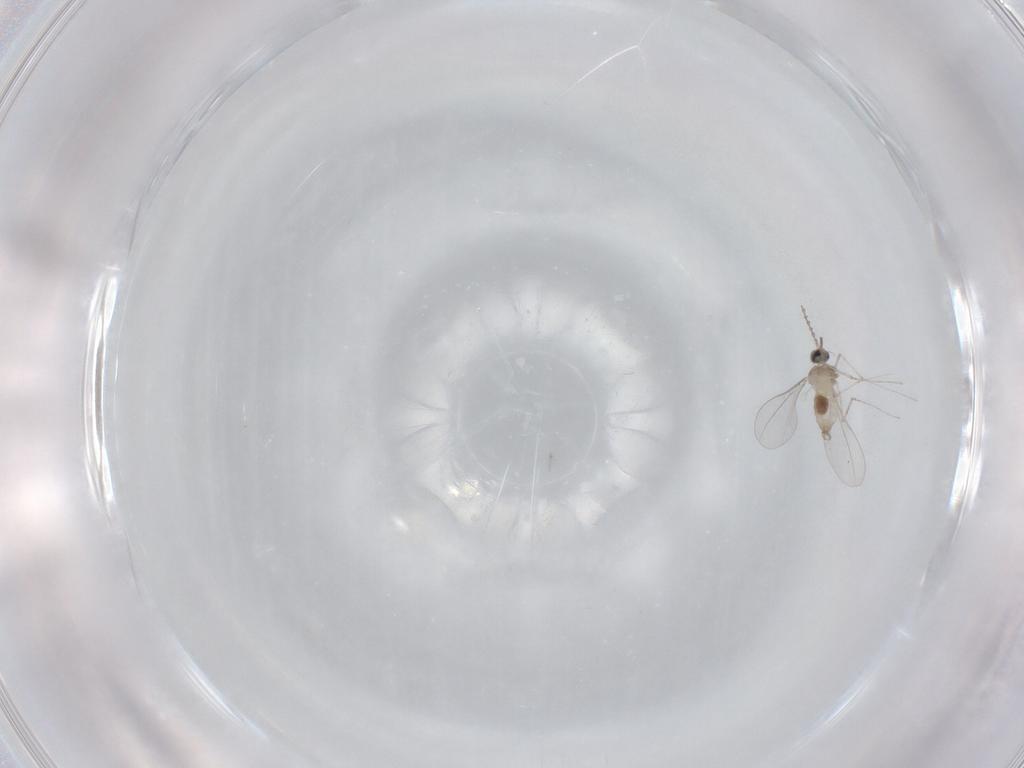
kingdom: Animalia
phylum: Arthropoda
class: Insecta
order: Diptera
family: Cecidomyiidae
